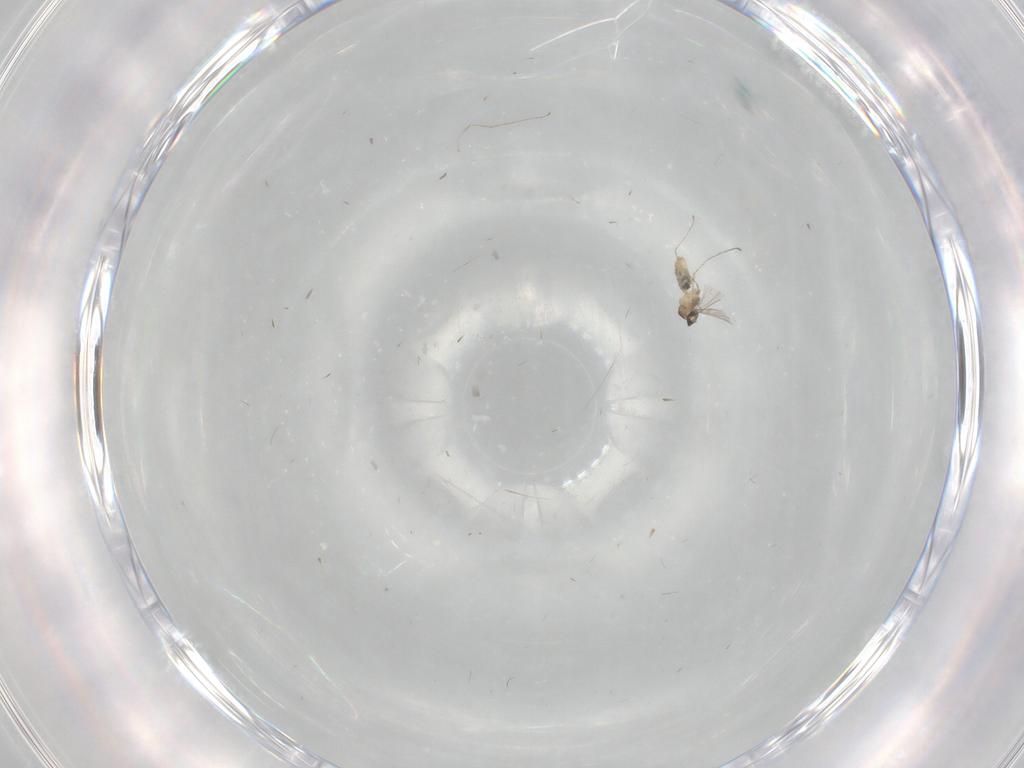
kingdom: Animalia
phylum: Arthropoda
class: Insecta
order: Diptera
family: Cecidomyiidae
